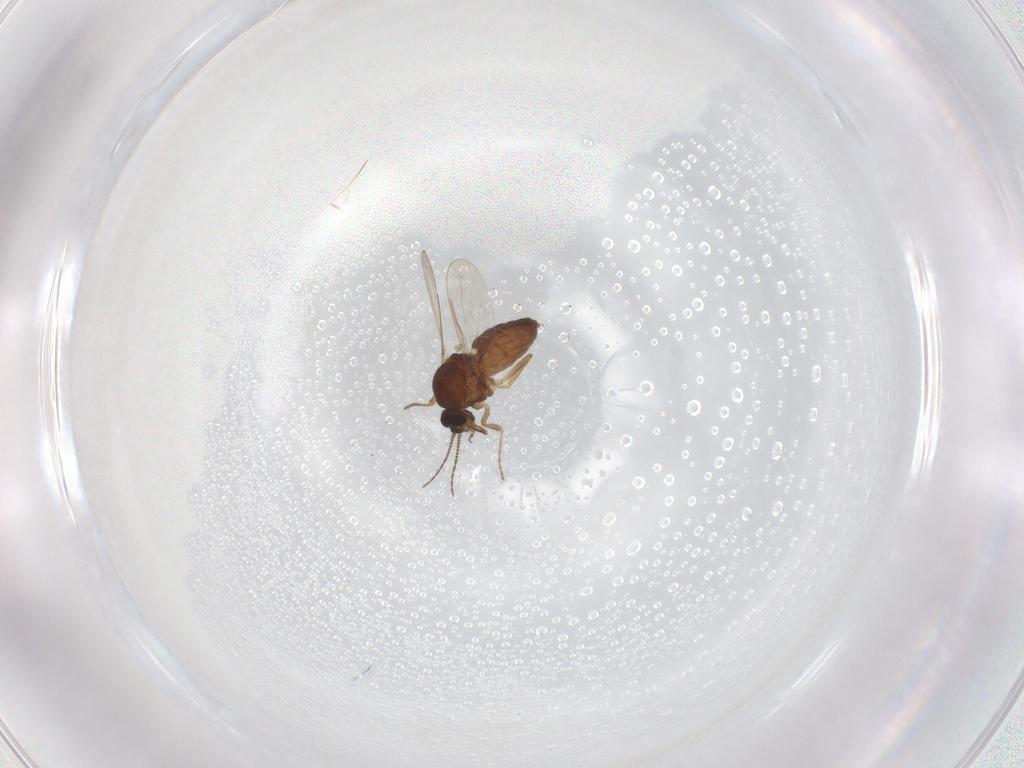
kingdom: Animalia
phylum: Arthropoda
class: Insecta
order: Diptera
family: Ceratopogonidae
